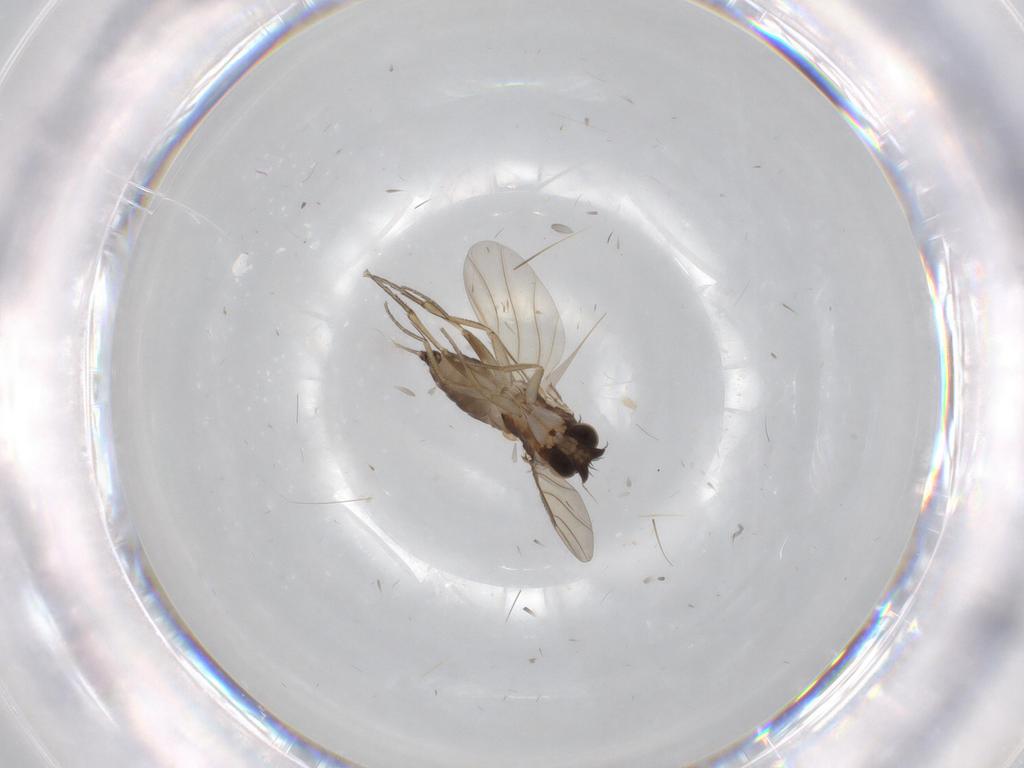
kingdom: Animalia
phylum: Arthropoda
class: Insecta
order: Diptera
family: Phoridae
